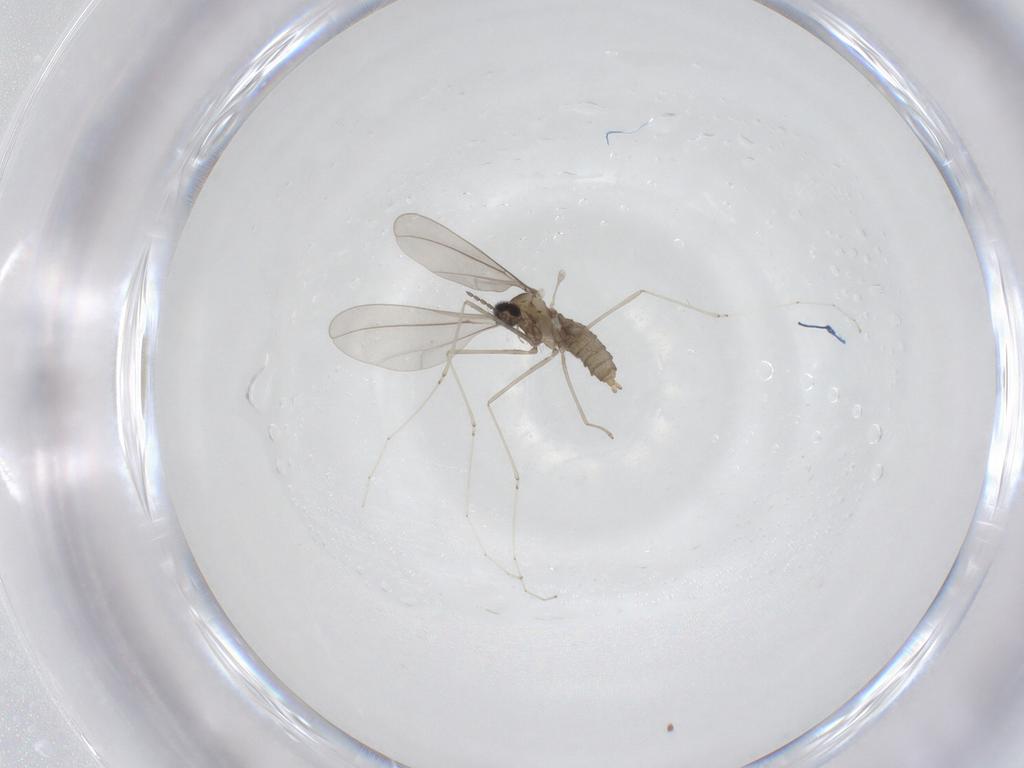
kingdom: Animalia
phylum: Arthropoda
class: Insecta
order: Diptera
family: Cecidomyiidae
